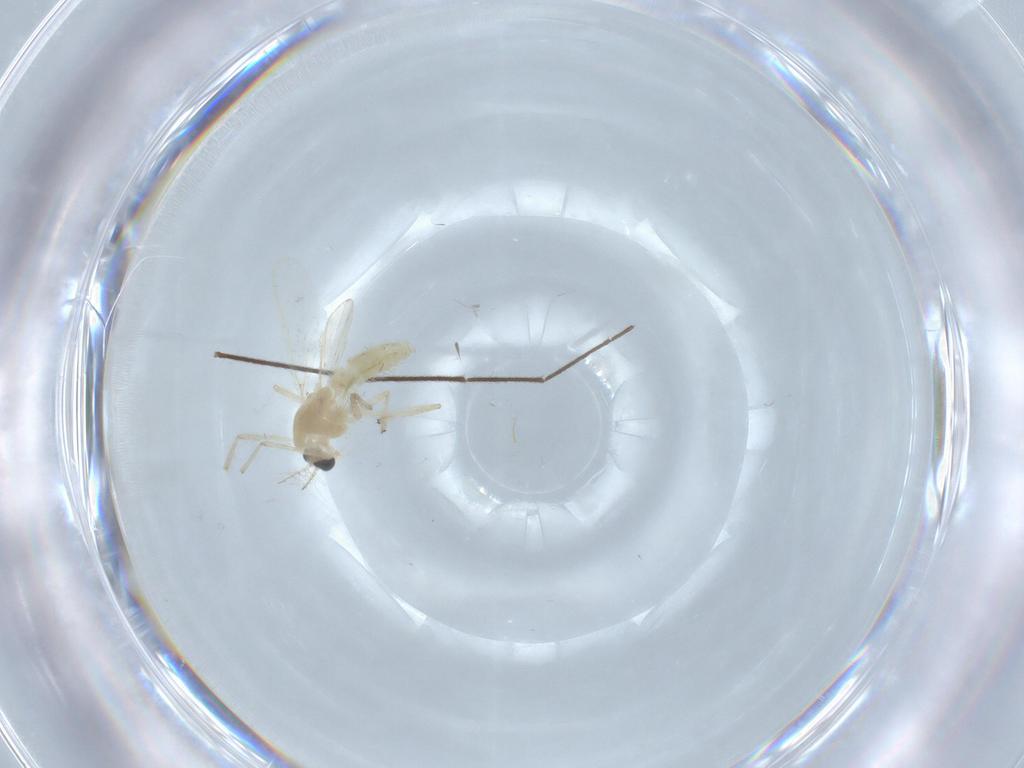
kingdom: Animalia
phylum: Arthropoda
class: Insecta
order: Diptera
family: Chironomidae
